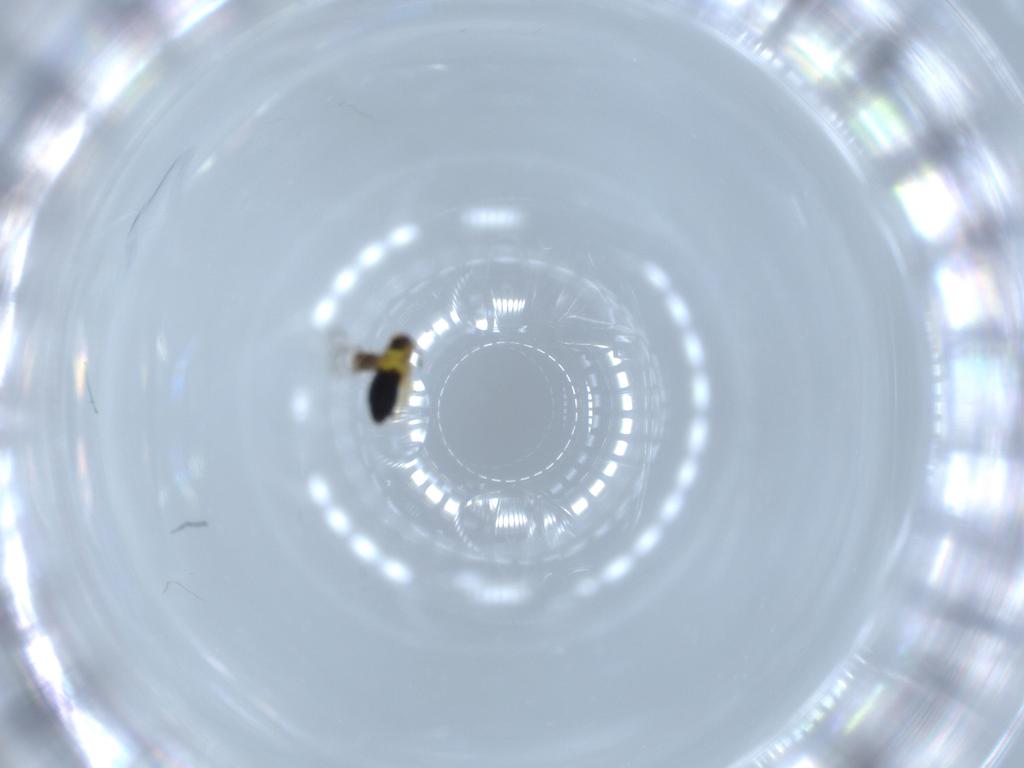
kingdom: Animalia
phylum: Arthropoda
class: Insecta
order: Hymenoptera
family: Signiphoridae
